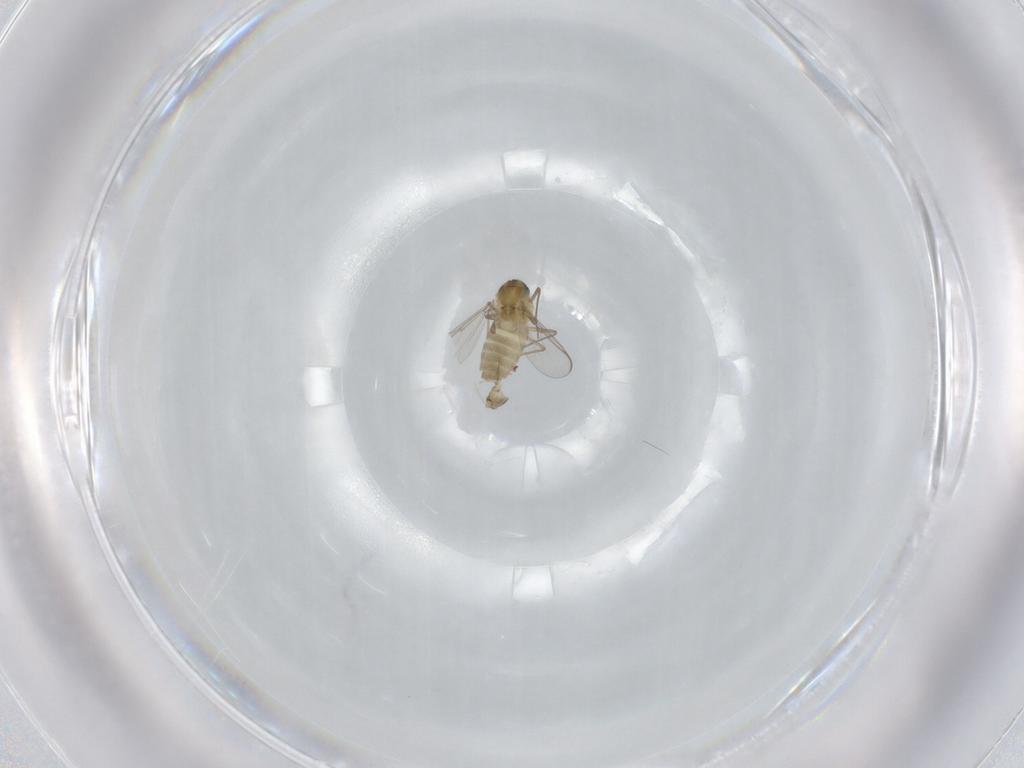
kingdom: Animalia
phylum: Arthropoda
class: Insecta
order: Diptera
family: Chironomidae
